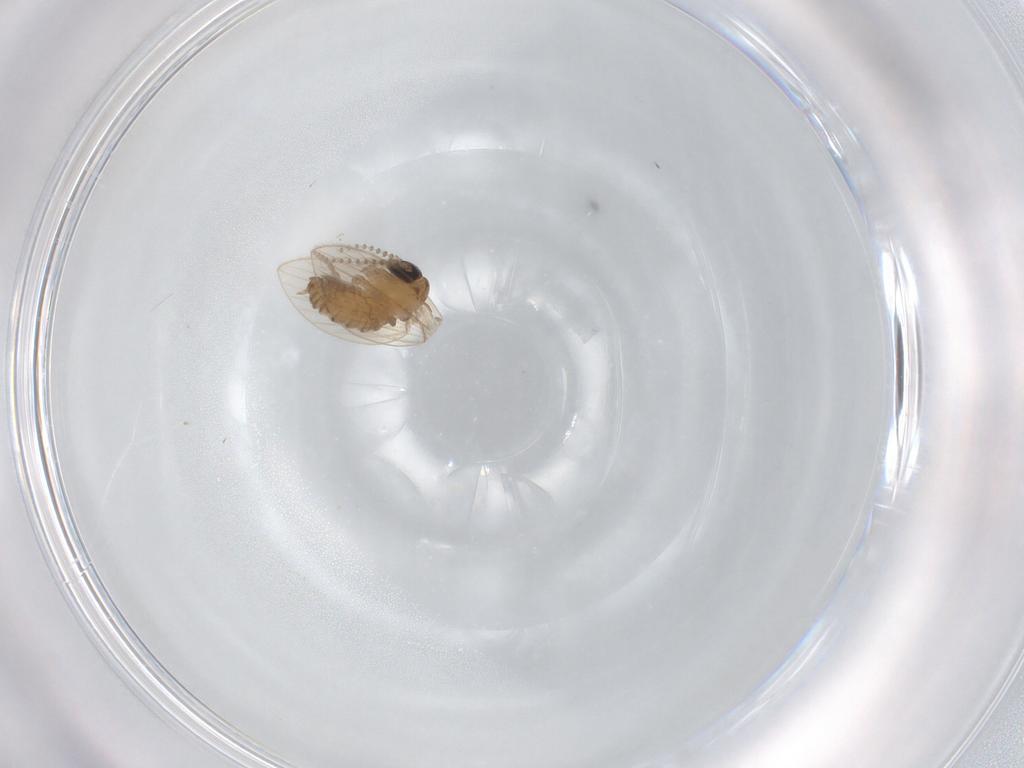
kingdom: Animalia
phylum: Arthropoda
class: Insecta
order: Diptera
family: Psychodidae
